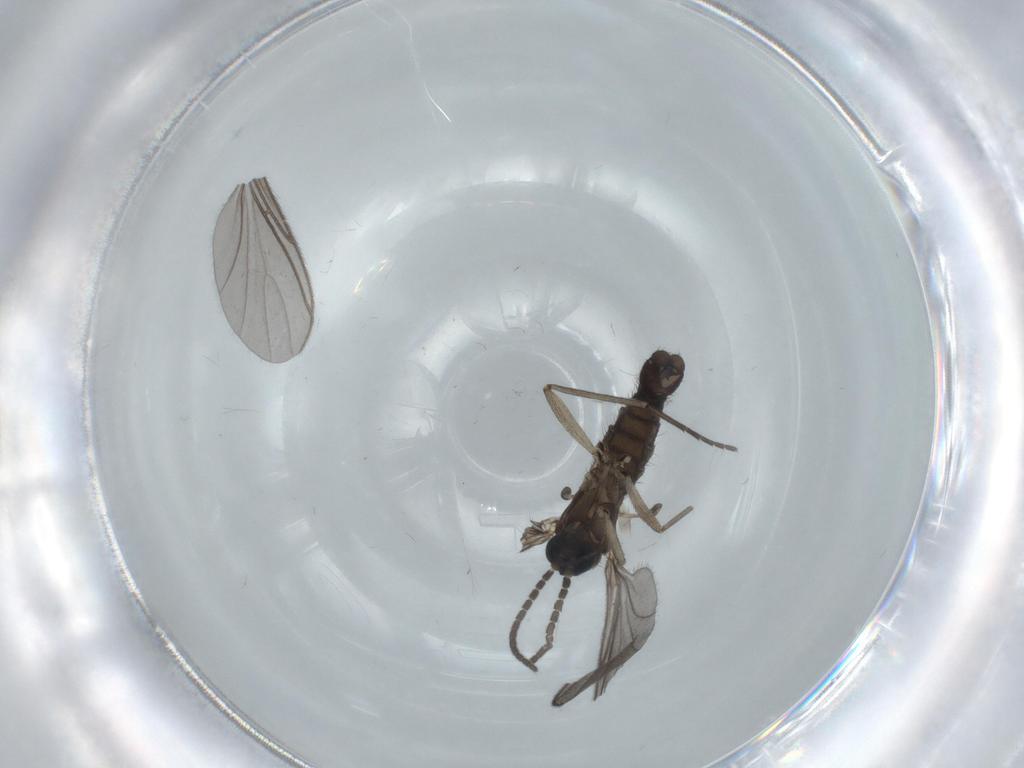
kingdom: Animalia
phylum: Arthropoda
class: Insecta
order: Diptera
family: Sciaridae
